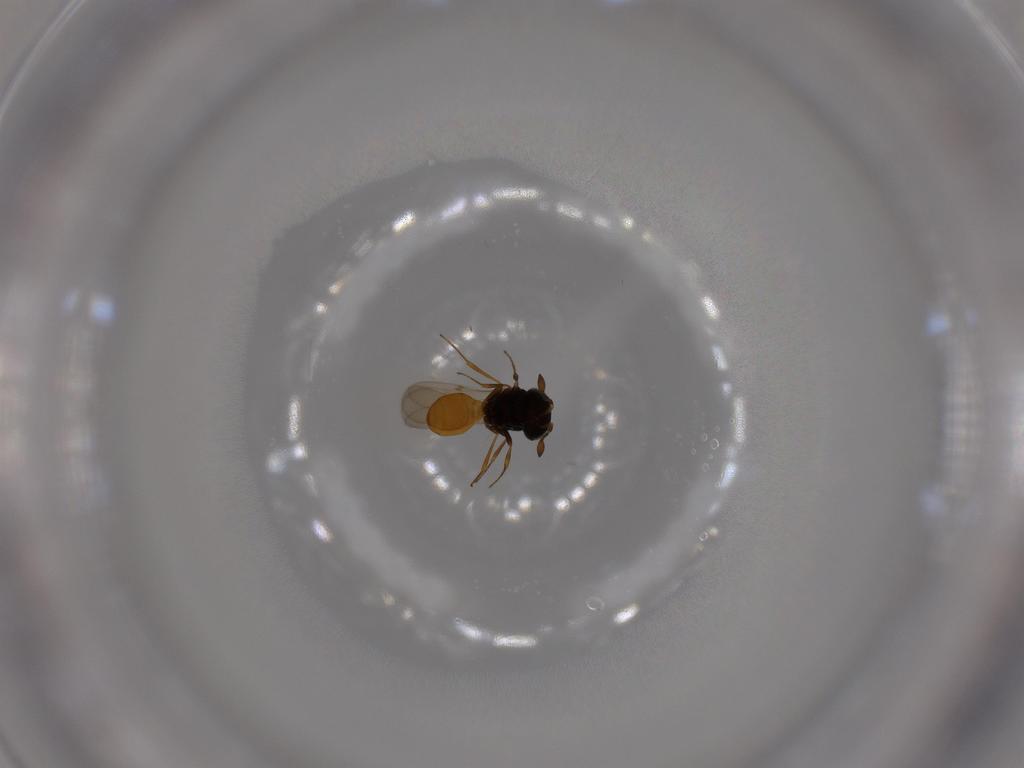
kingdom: Animalia
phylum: Arthropoda
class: Insecta
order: Hymenoptera
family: Scelionidae
